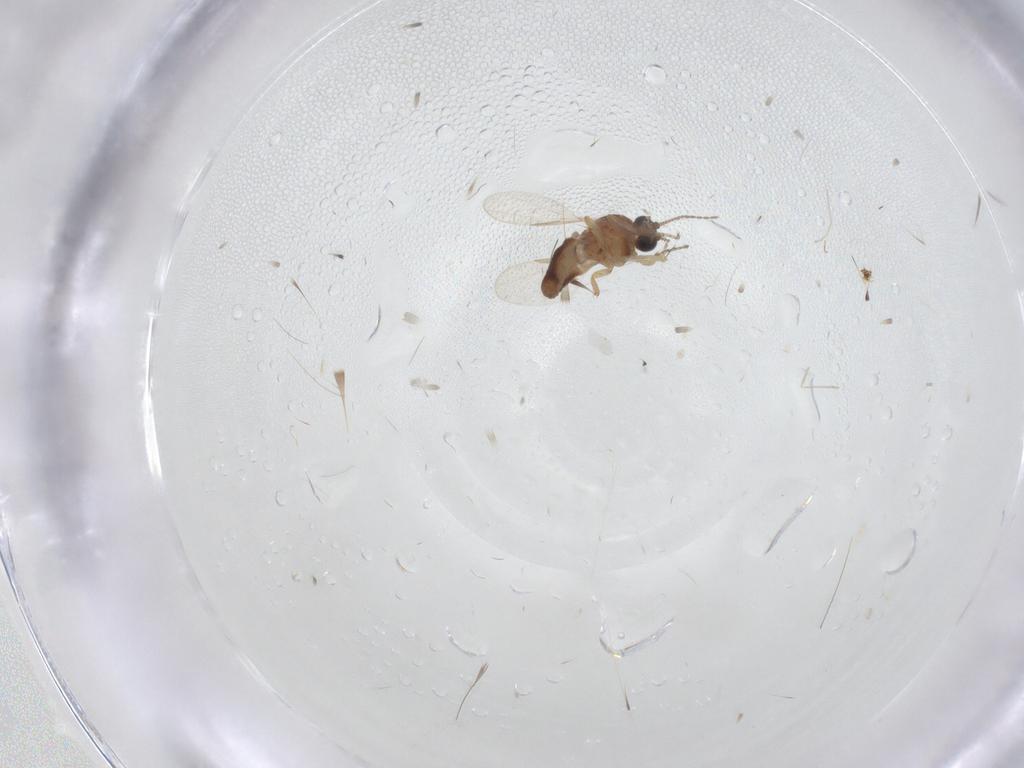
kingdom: Animalia
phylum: Arthropoda
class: Insecta
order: Diptera
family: Ceratopogonidae
